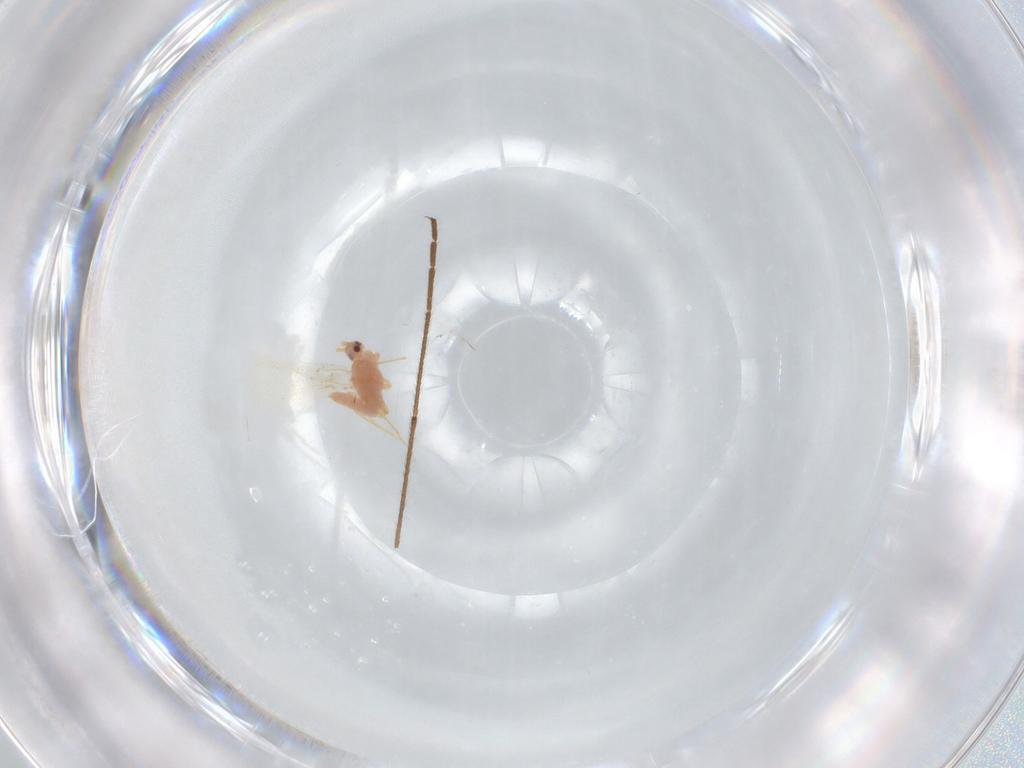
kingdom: Animalia
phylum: Arthropoda
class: Insecta
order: Hemiptera
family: Coccoidea_incertae_sedis
